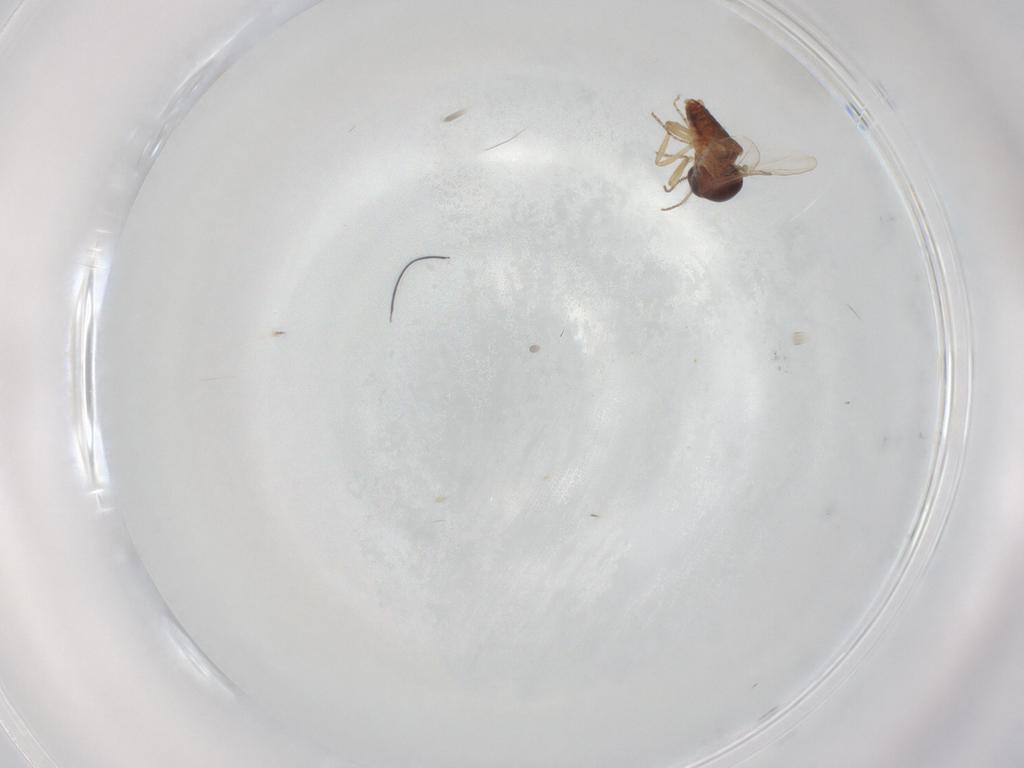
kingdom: Animalia
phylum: Arthropoda
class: Insecta
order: Diptera
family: Ceratopogonidae
